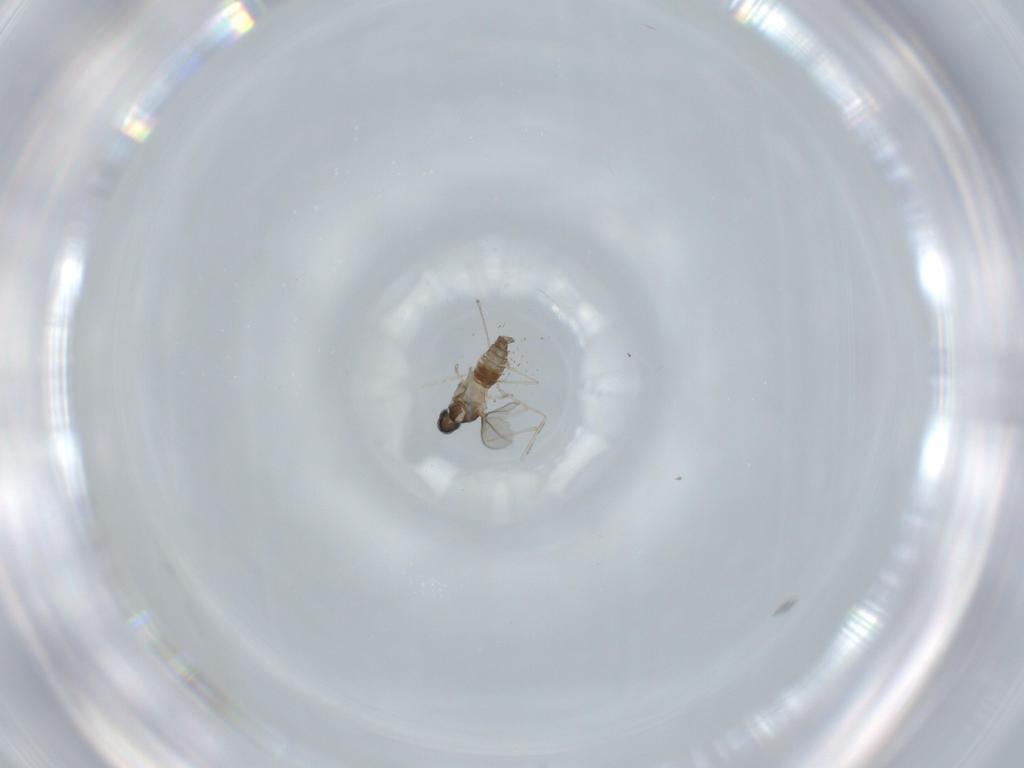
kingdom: Animalia
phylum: Arthropoda
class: Insecta
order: Diptera
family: Cecidomyiidae
